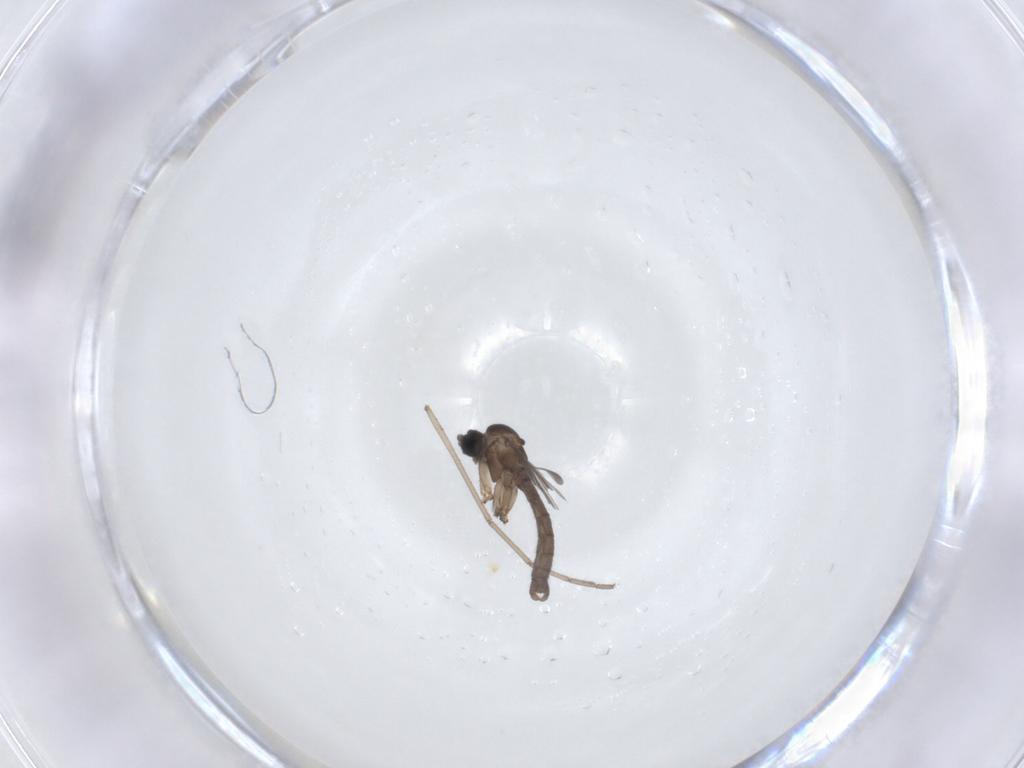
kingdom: Animalia
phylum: Arthropoda
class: Insecta
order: Diptera
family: Sciaridae
